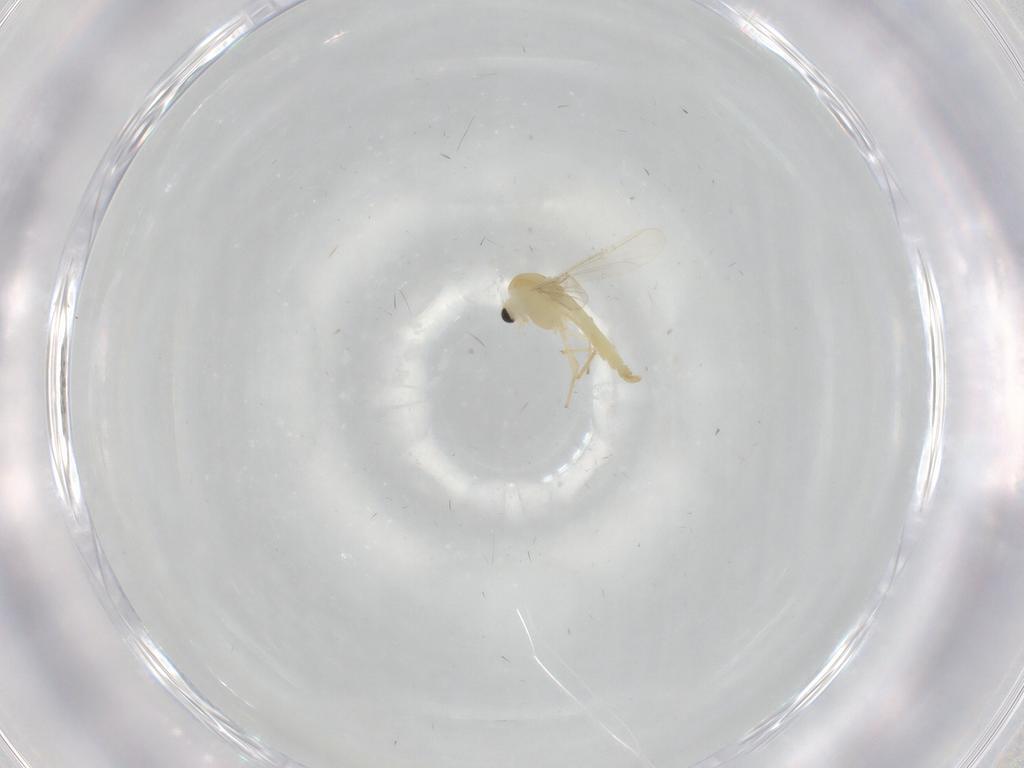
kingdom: Animalia
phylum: Arthropoda
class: Insecta
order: Diptera
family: Chironomidae
